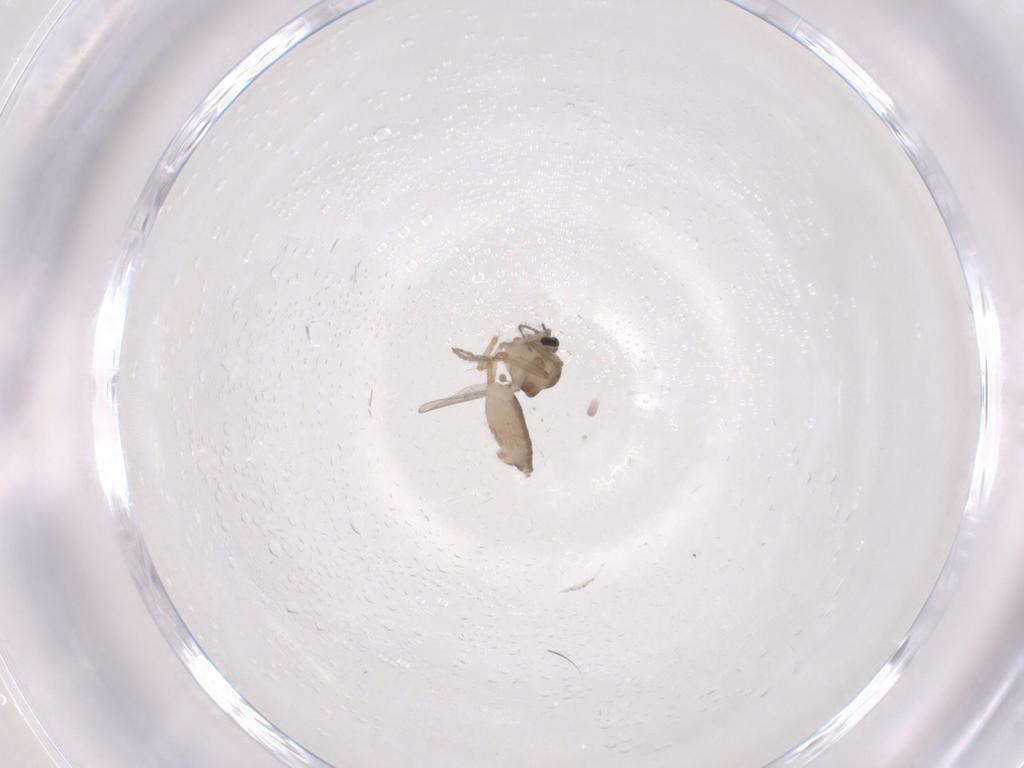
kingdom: Animalia
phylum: Arthropoda
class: Insecta
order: Diptera
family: Ceratopogonidae
